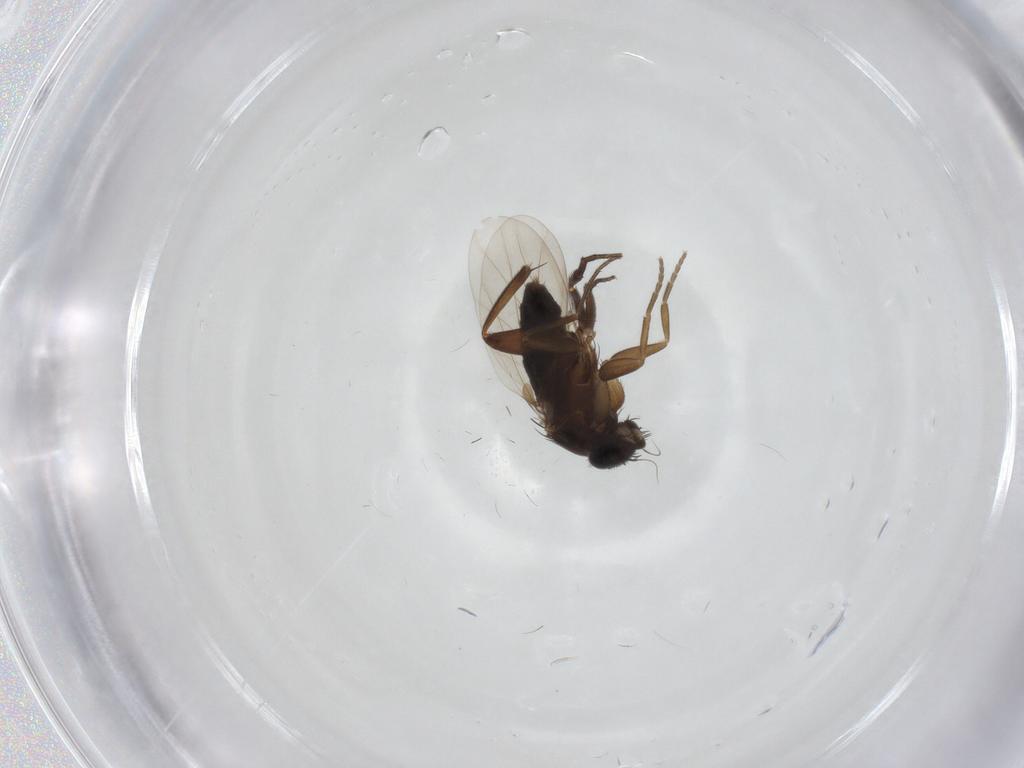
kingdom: Animalia
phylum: Arthropoda
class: Insecta
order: Diptera
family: Phoridae
